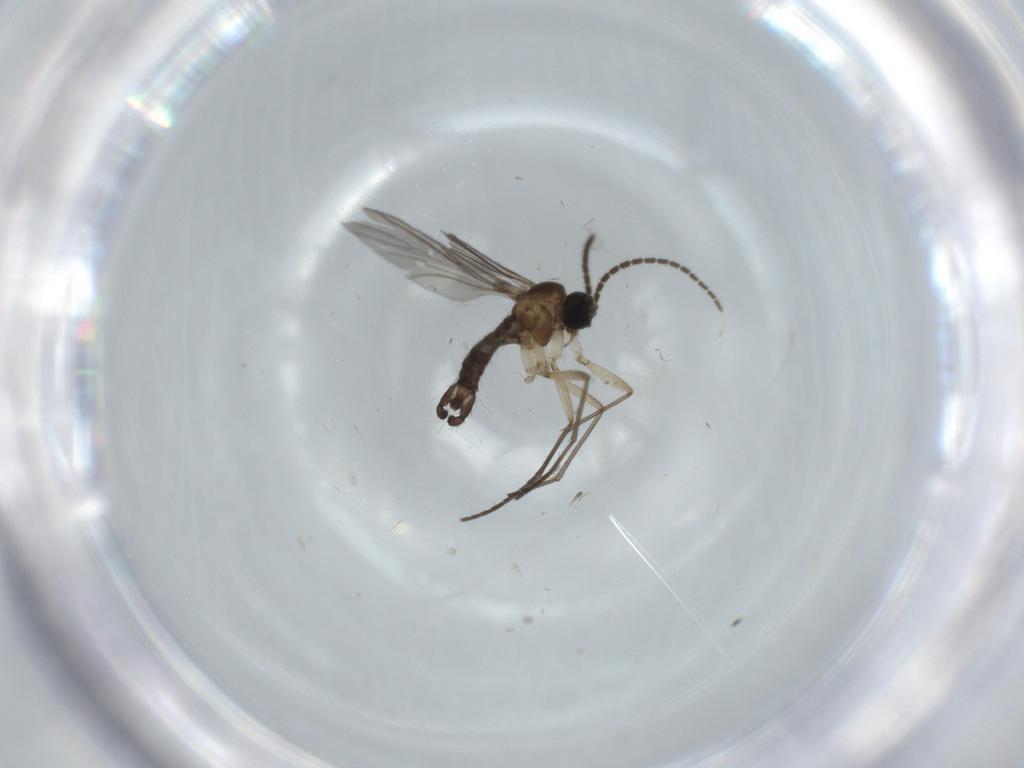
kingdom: Animalia
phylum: Arthropoda
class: Insecta
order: Diptera
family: Sciaridae
